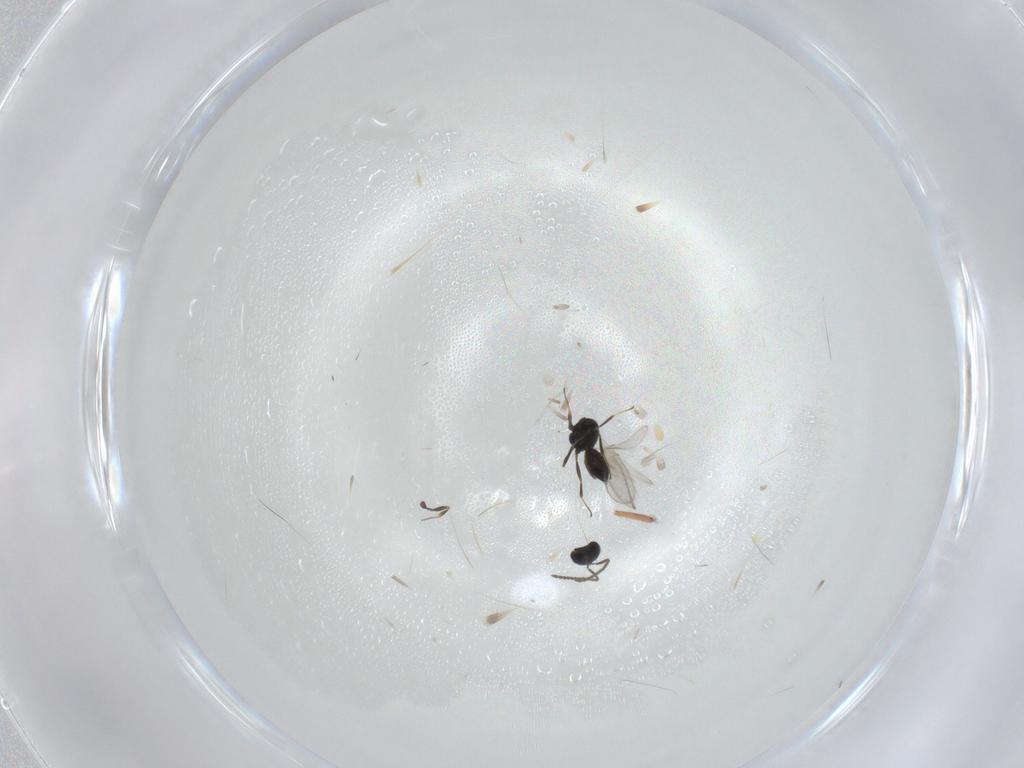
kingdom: Animalia
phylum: Arthropoda
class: Insecta
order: Hymenoptera
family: Scelionidae
